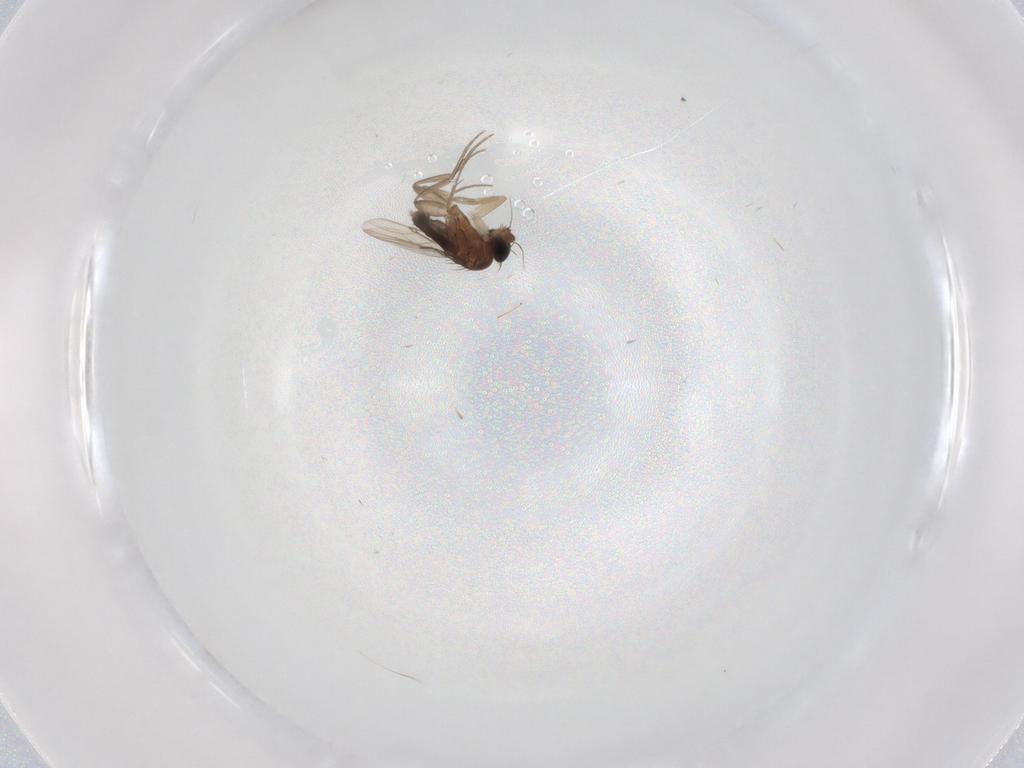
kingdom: Animalia
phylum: Arthropoda
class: Insecta
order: Diptera
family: Phoridae
